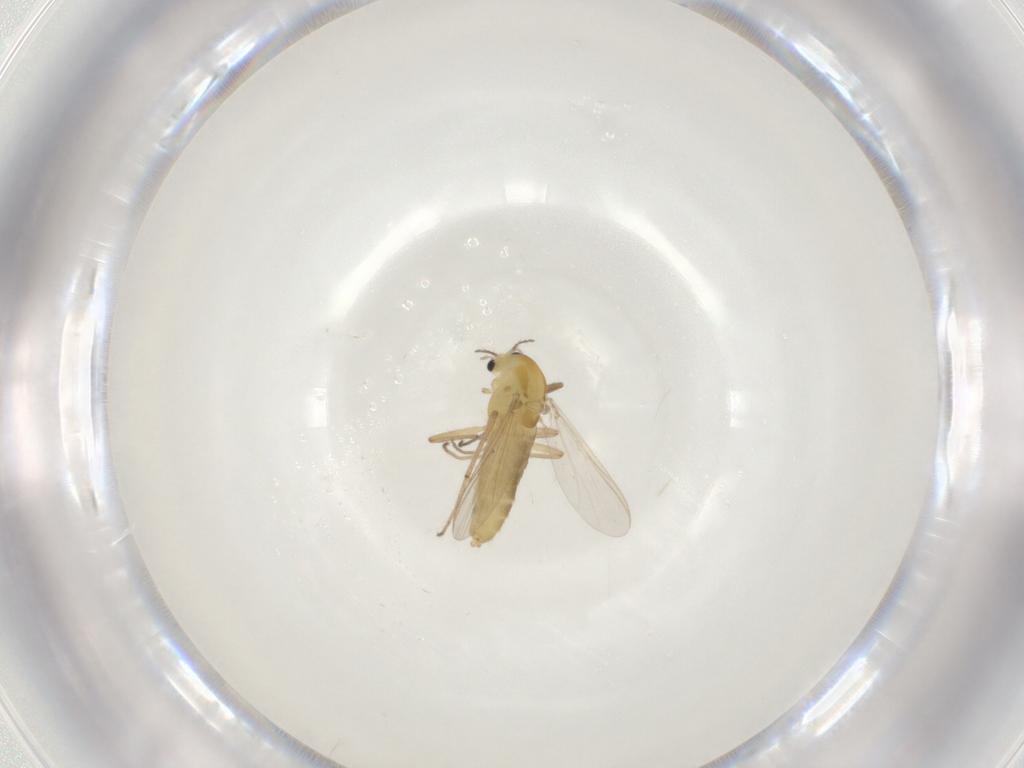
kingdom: Animalia
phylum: Arthropoda
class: Insecta
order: Diptera
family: Chironomidae
